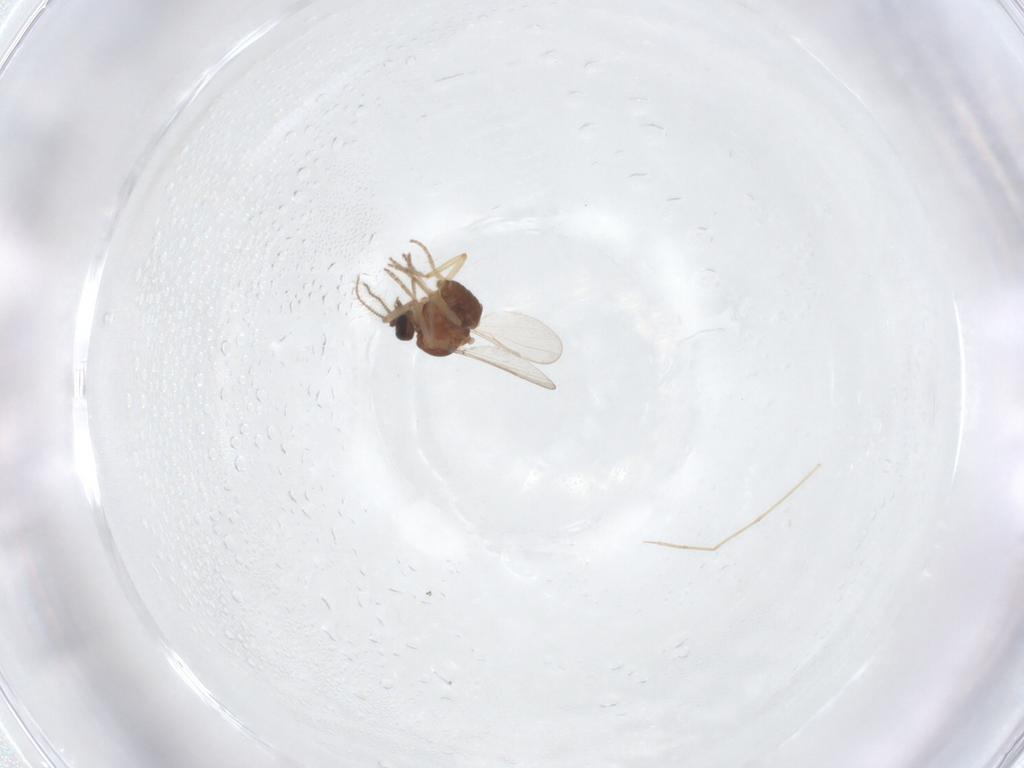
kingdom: Animalia
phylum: Arthropoda
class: Insecta
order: Diptera
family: Ceratopogonidae
